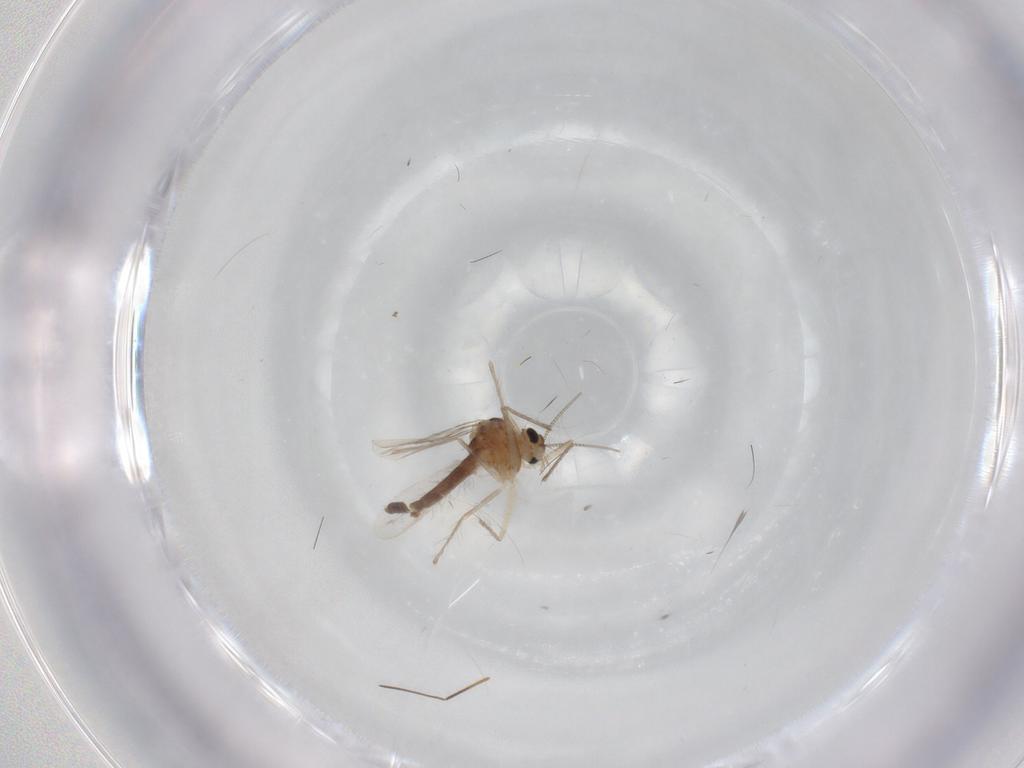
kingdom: Animalia
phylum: Arthropoda
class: Insecta
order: Diptera
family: Chironomidae
